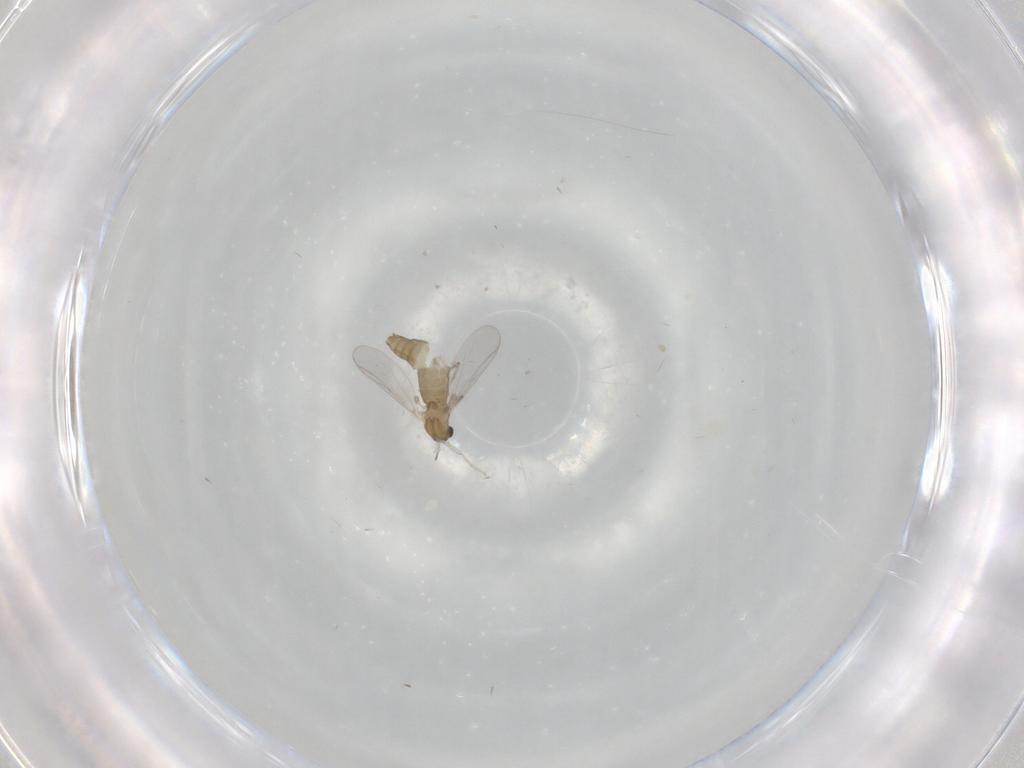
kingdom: Animalia
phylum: Arthropoda
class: Insecta
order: Diptera
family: Chironomidae
